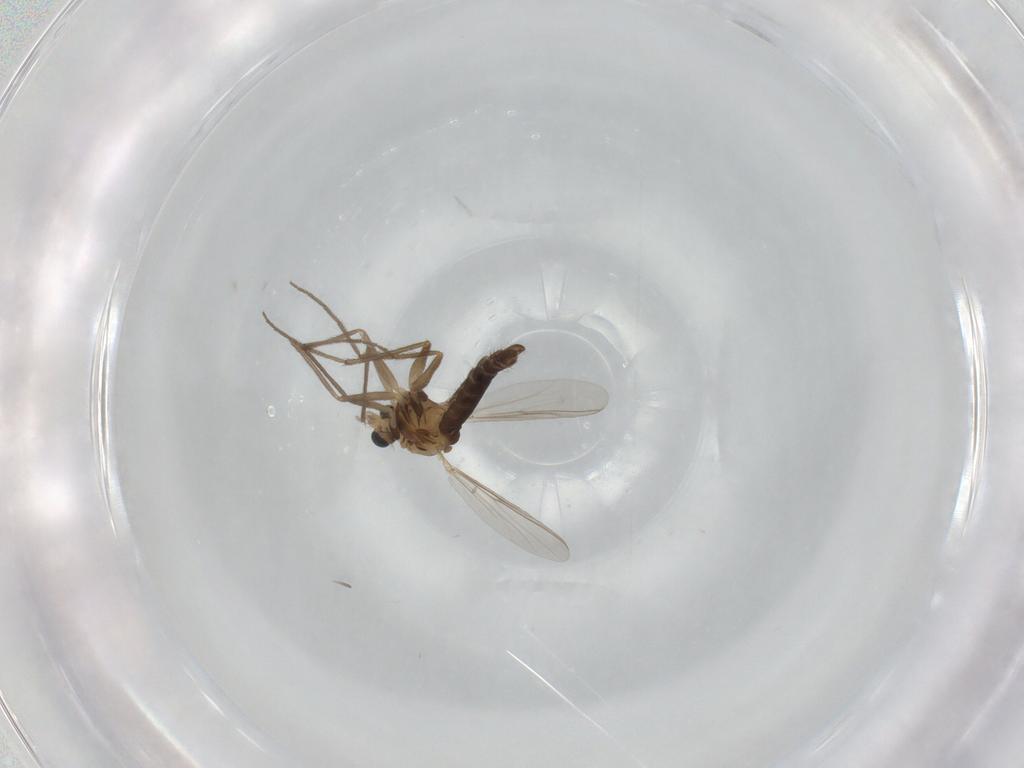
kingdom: Animalia
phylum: Arthropoda
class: Insecta
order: Diptera
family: Chironomidae
